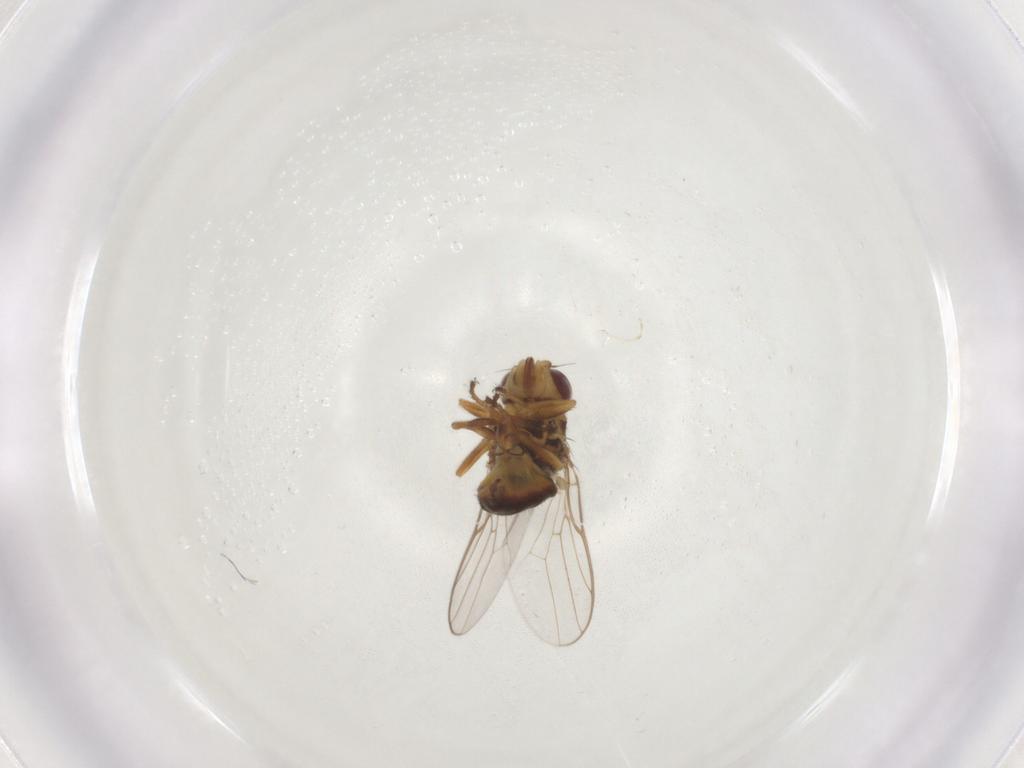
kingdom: Animalia
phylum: Arthropoda
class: Insecta
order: Diptera
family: Chloropidae
